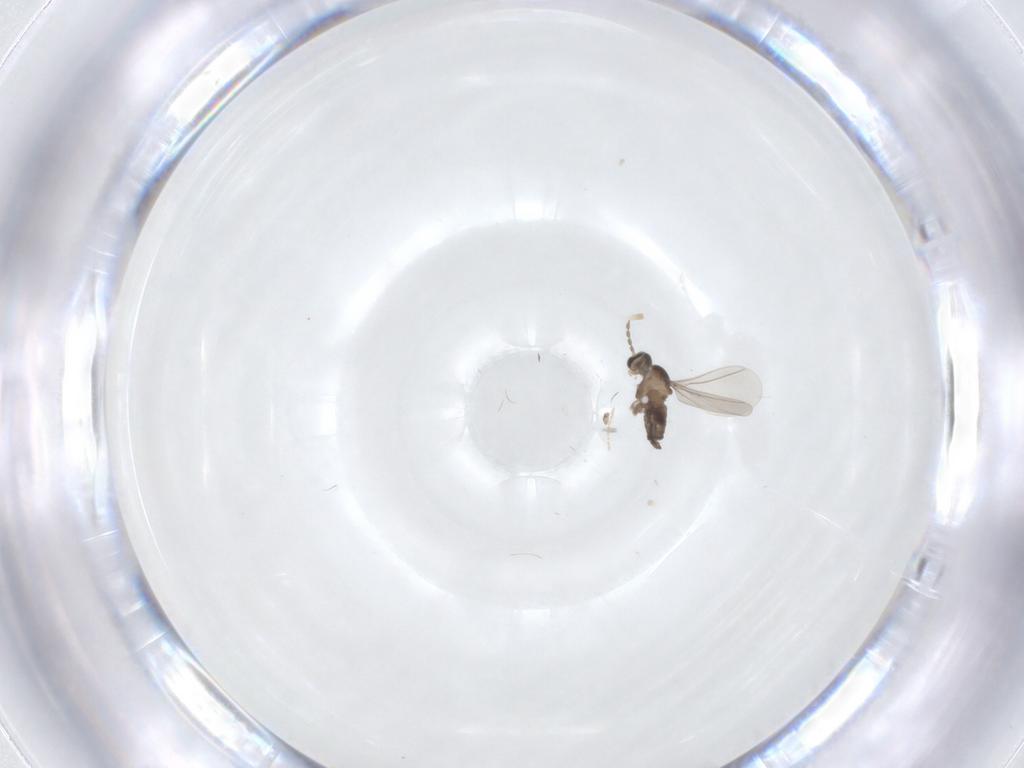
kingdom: Animalia
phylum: Arthropoda
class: Insecta
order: Diptera
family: Cecidomyiidae
